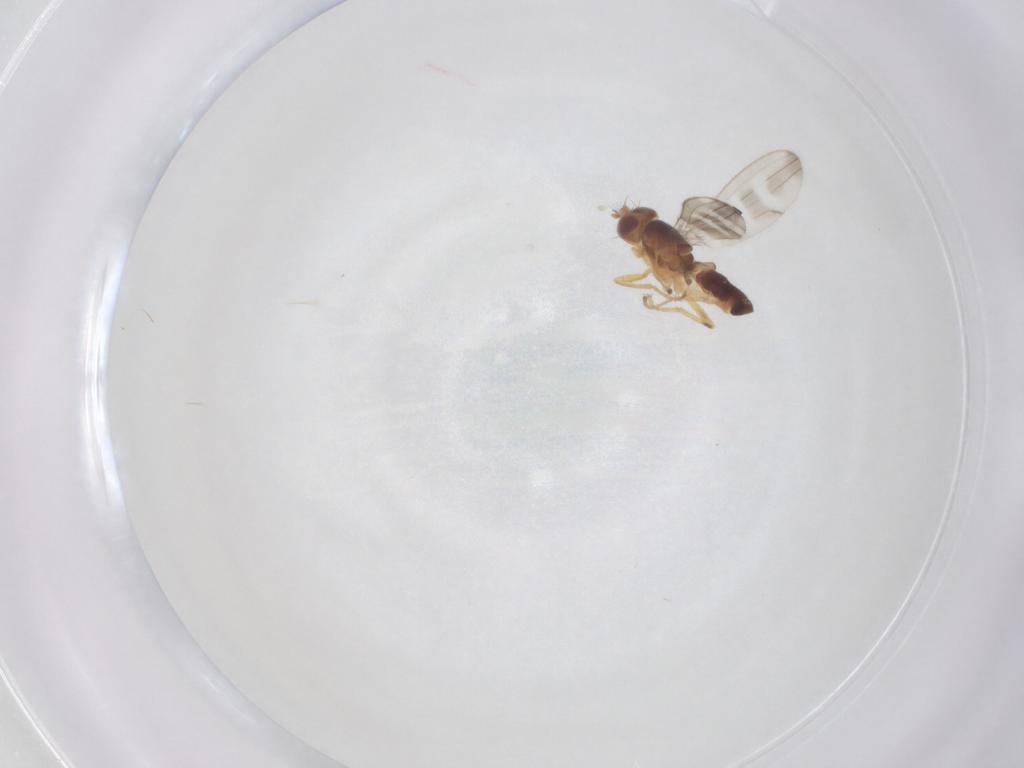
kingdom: Animalia
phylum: Arthropoda
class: Insecta
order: Diptera
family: Periscelididae
